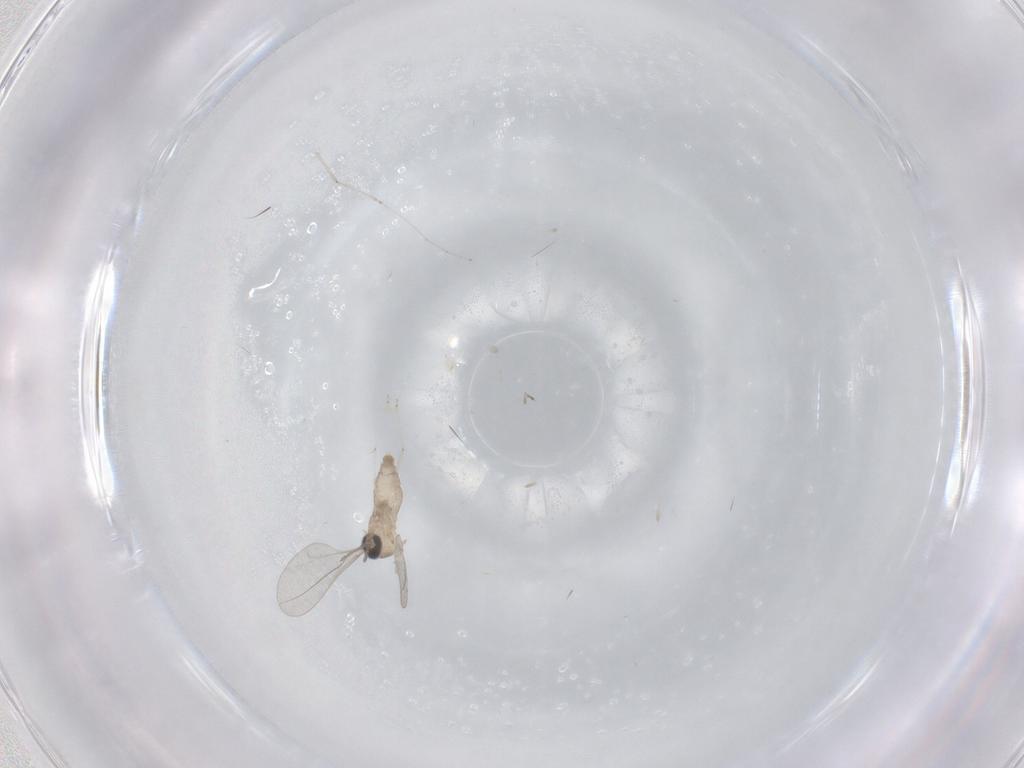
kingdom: Animalia
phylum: Arthropoda
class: Insecta
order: Diptera
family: Cecidomyiidae
